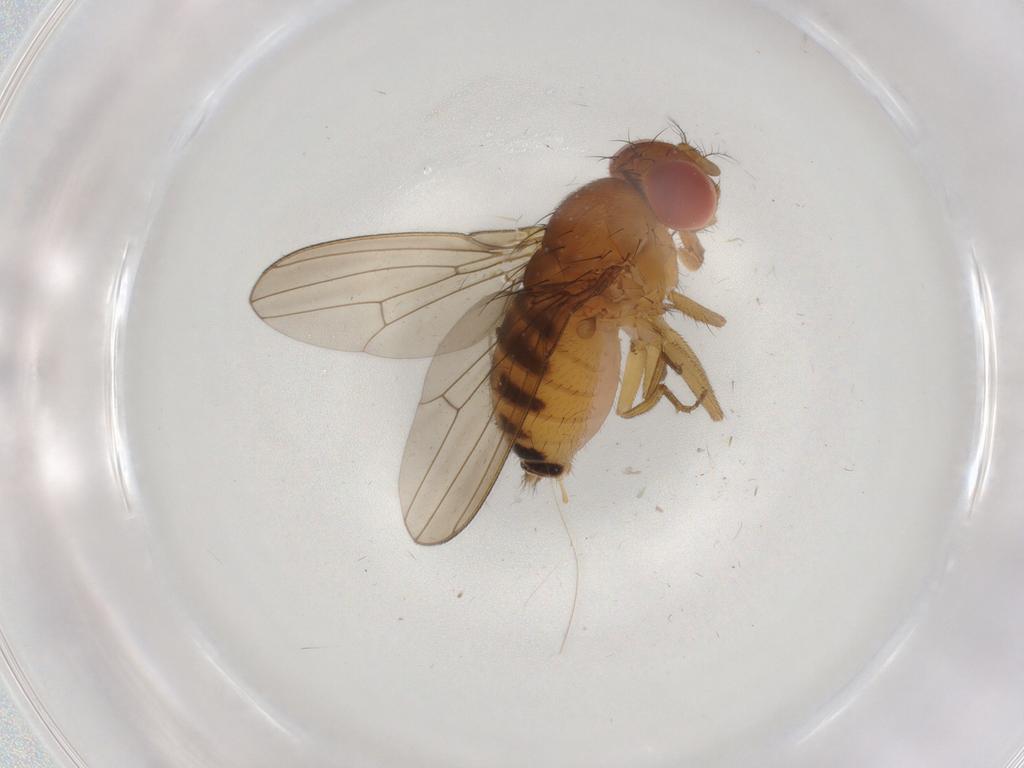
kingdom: Animalia
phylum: Arthropoda
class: Insecta
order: Diptera
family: Drosophilidae
